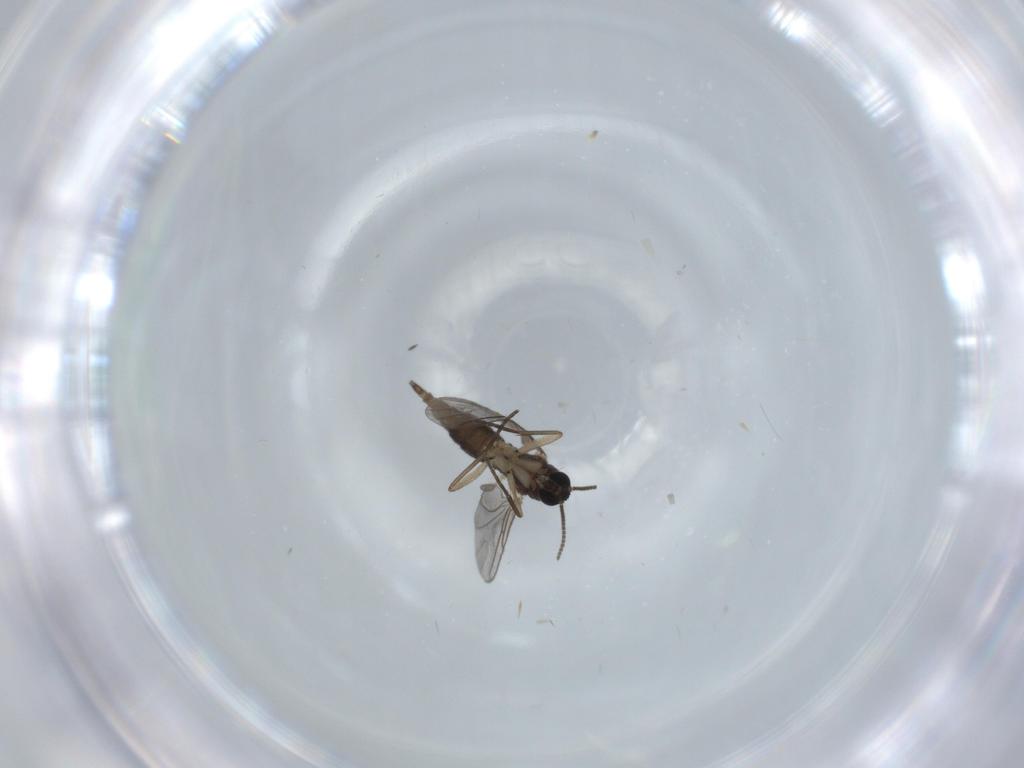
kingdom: Animalia
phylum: Arthropoda
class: Insecta
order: Diptera
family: Sciaridae
